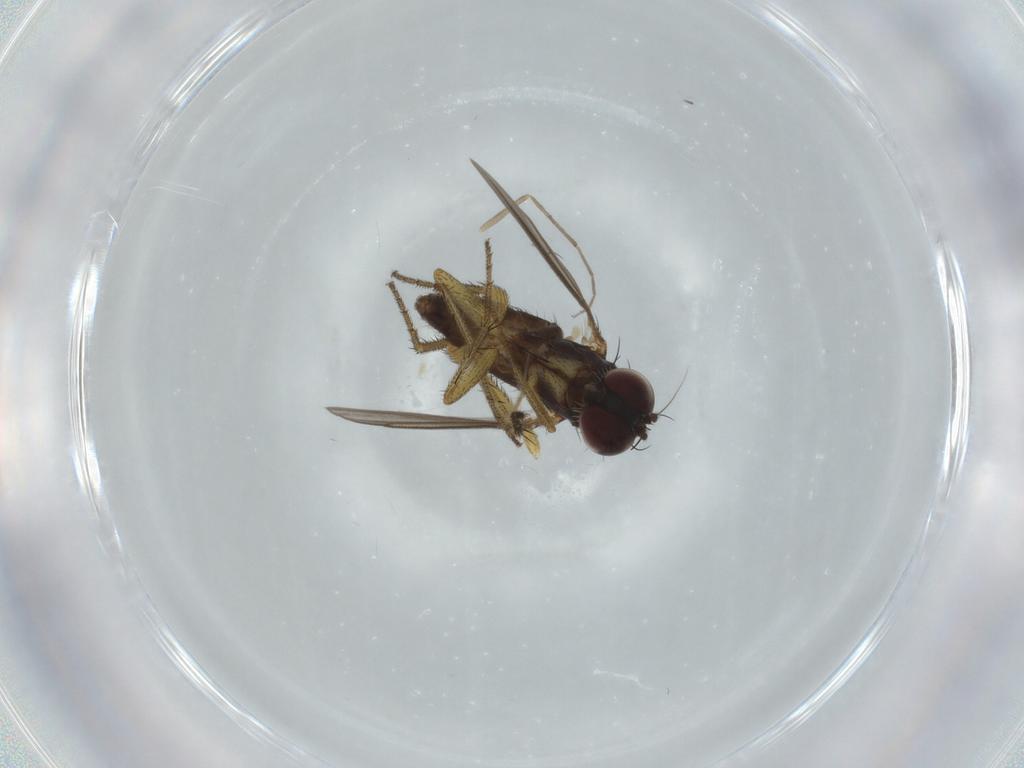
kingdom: Animalia
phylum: Arthropoda
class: Insecta
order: Diptera
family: Dolichopodidae
